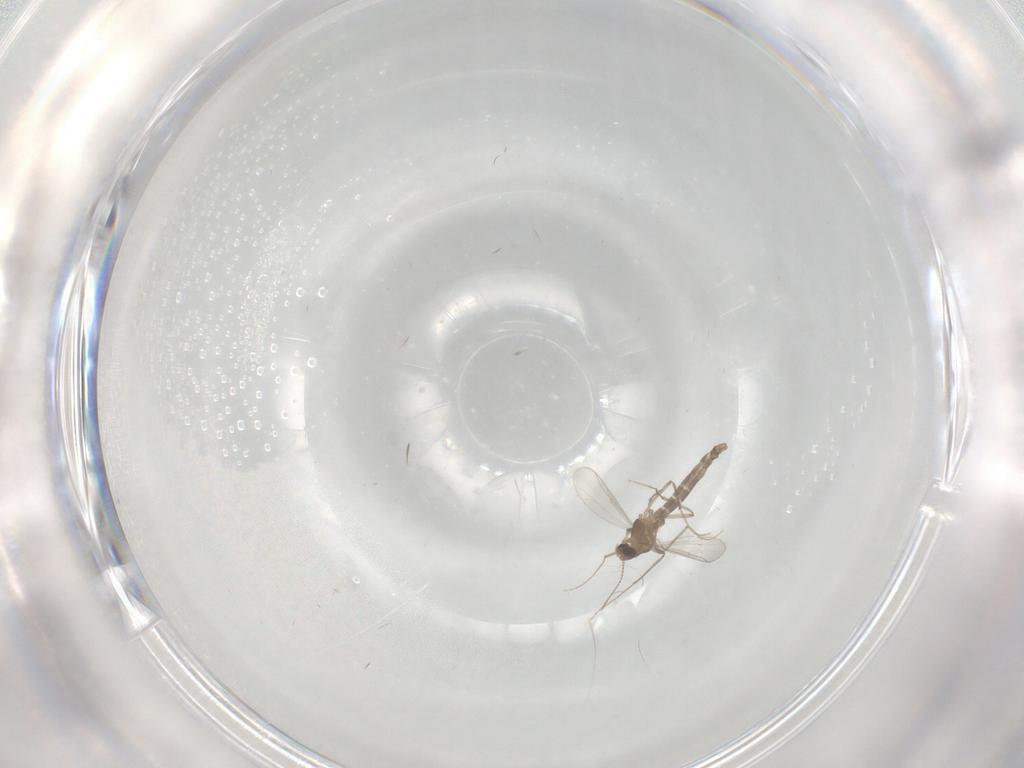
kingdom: Animalia
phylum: Arthropoda
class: Insecta
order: Diptera
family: Chironomidae
